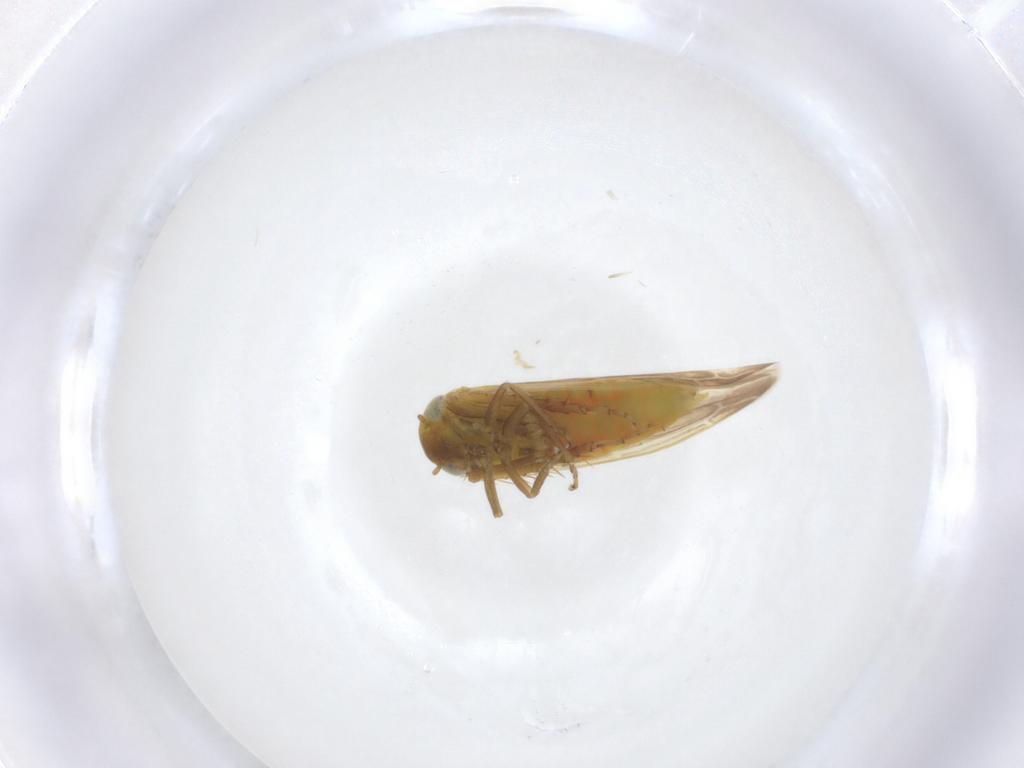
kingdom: Animalia
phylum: Arthropoda
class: Insecta
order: Hemiptera
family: Cicadellidae
